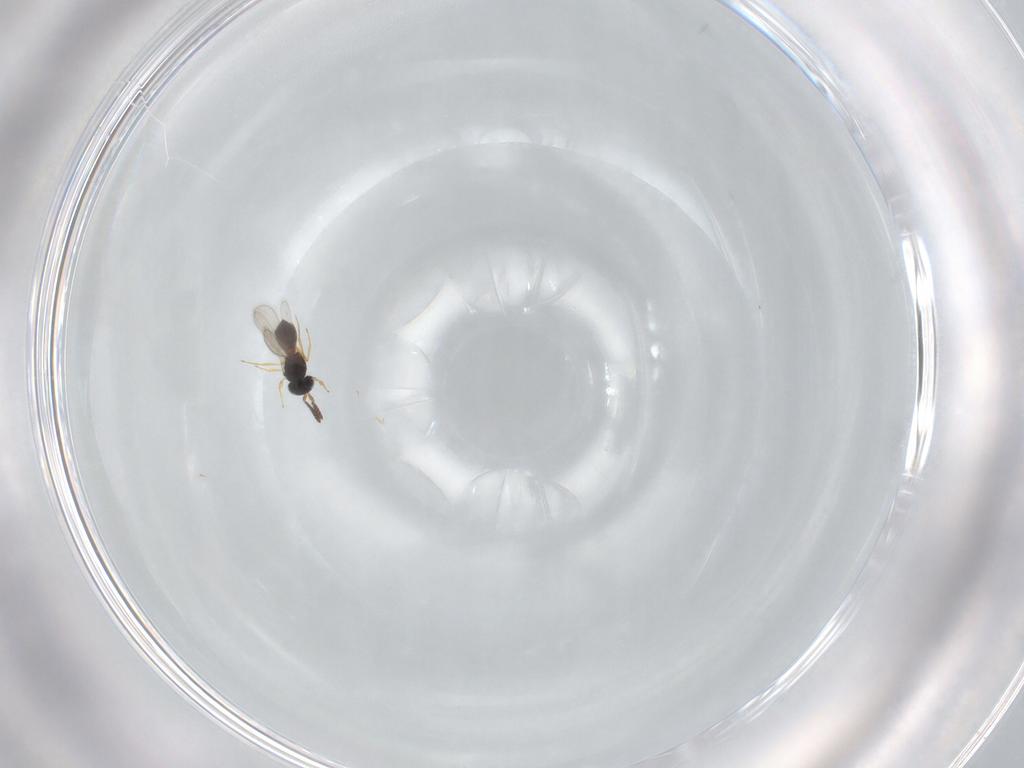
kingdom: Animalia
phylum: Arthropoda
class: Insecta
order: Hymenoptera
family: Scelionidae
